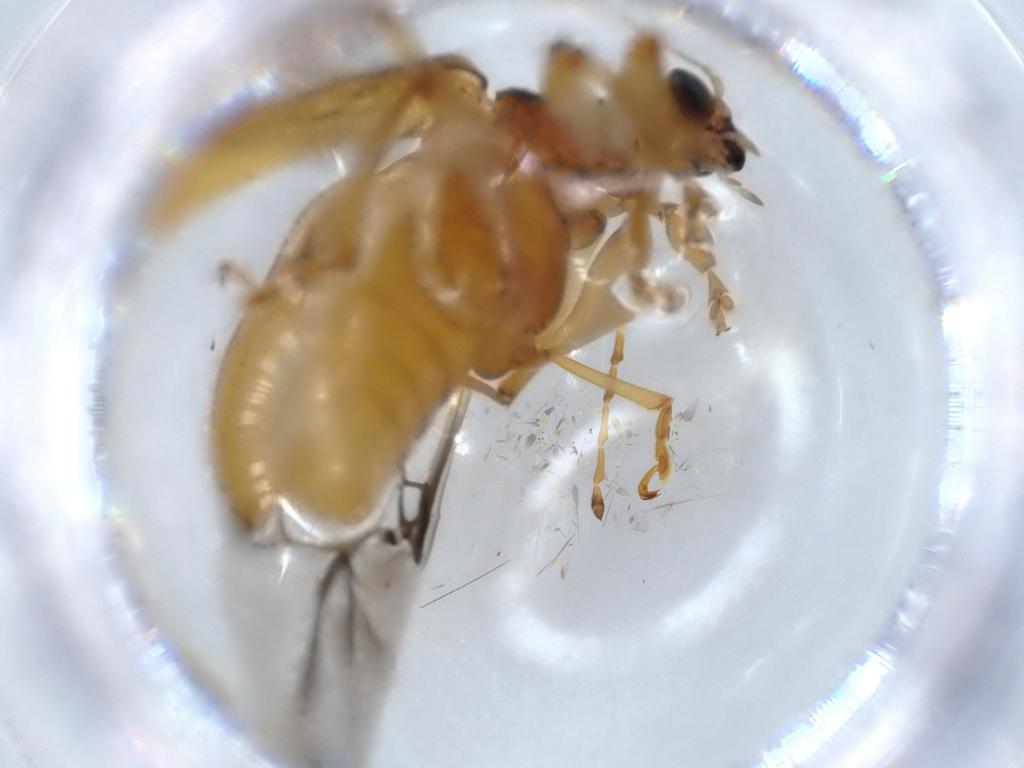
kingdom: Animalia
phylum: Arthropoda
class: Insecta
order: Coleoptera
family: Chrysomelidae
